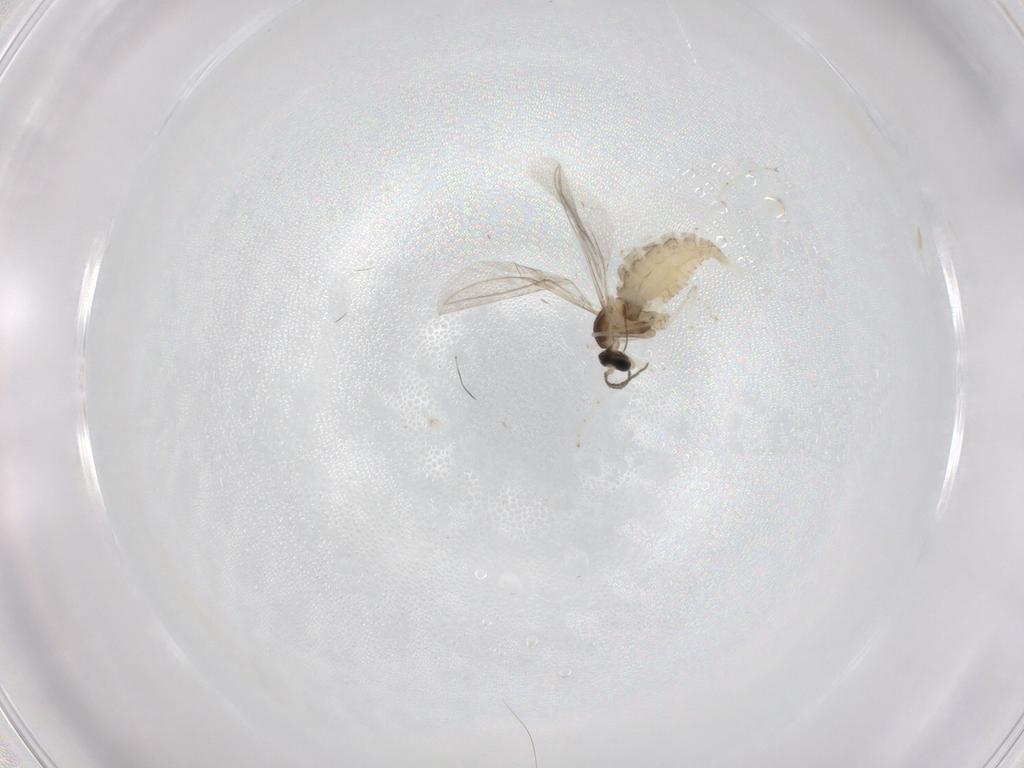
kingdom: Animalia
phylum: Arthropoda
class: Insecta
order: Diptera
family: Cecidomyiidae
